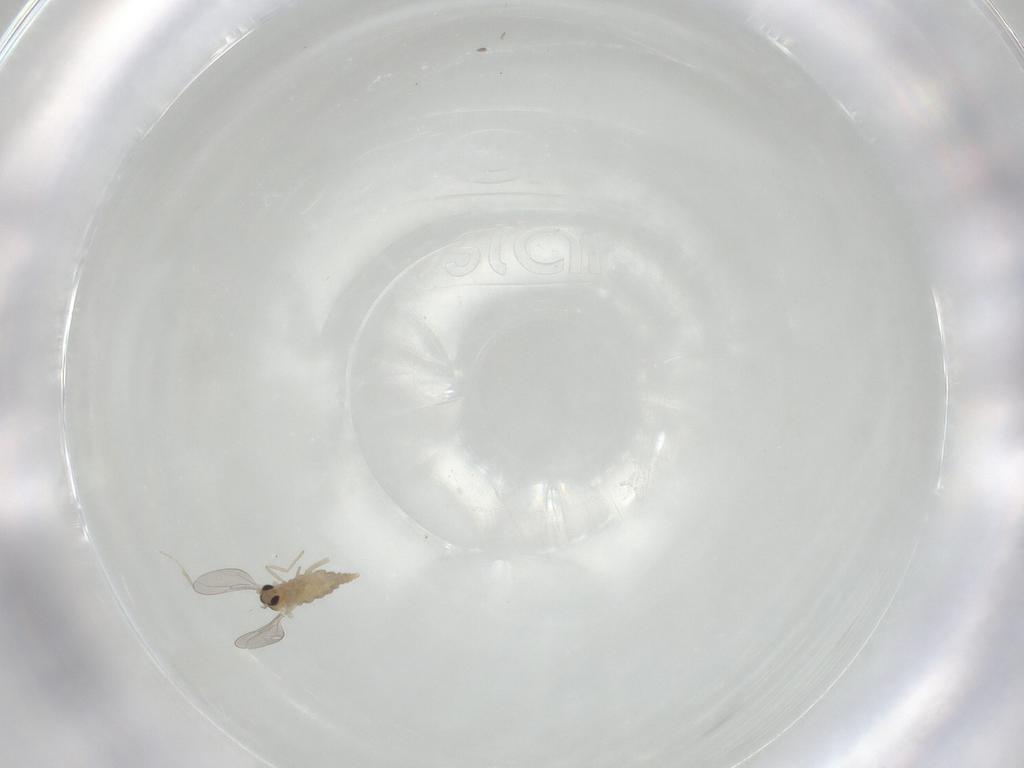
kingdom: Animalia
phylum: Arthropoda
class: Insecta
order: Diptera
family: Cecidomyiidae
